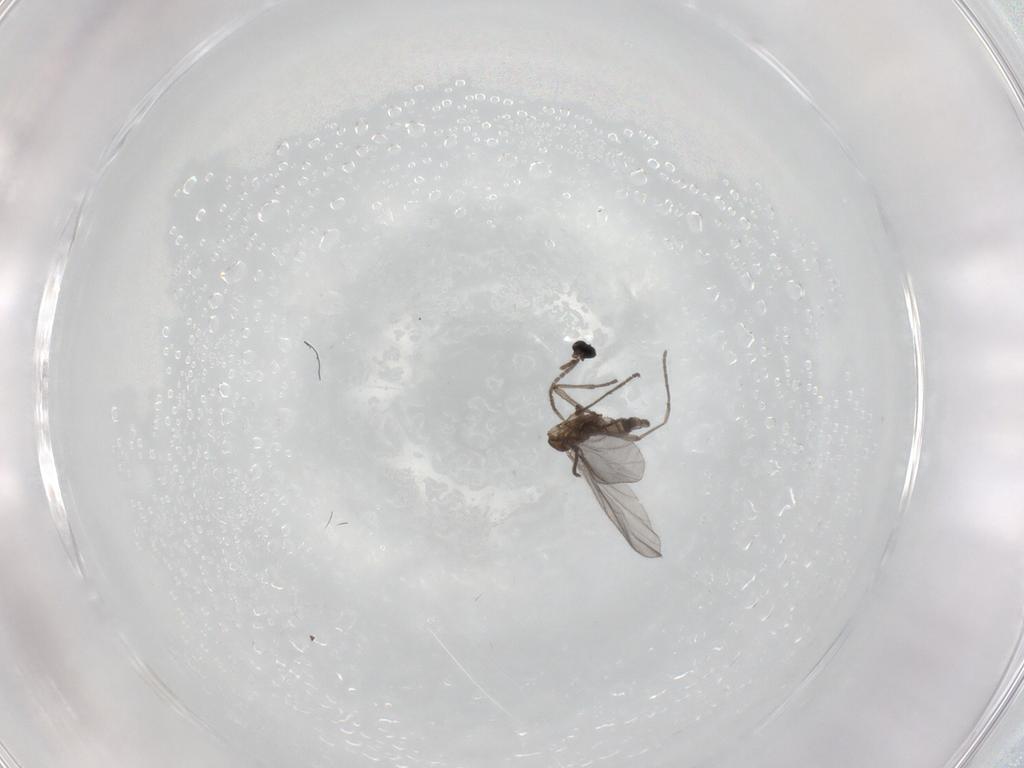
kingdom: Animalia
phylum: Arthropoda
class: Insecta
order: Diptera
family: Sciaridae
